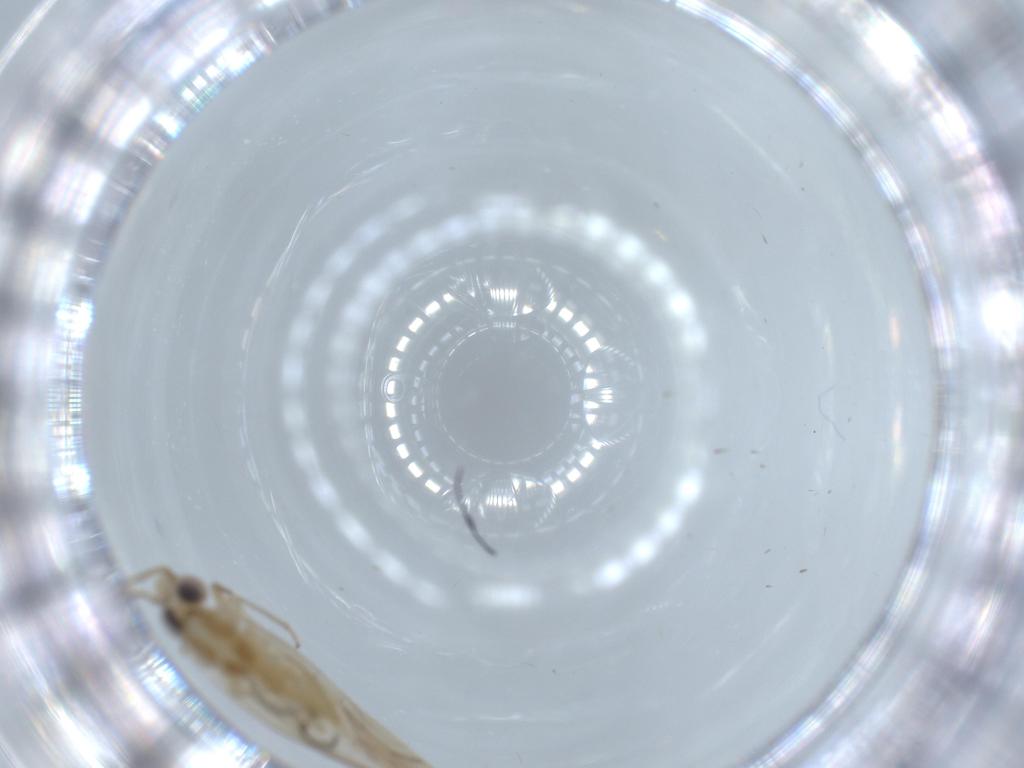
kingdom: Animalia
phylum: Arthropoda
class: Insecta
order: Psocodea
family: Caeciliusidae
